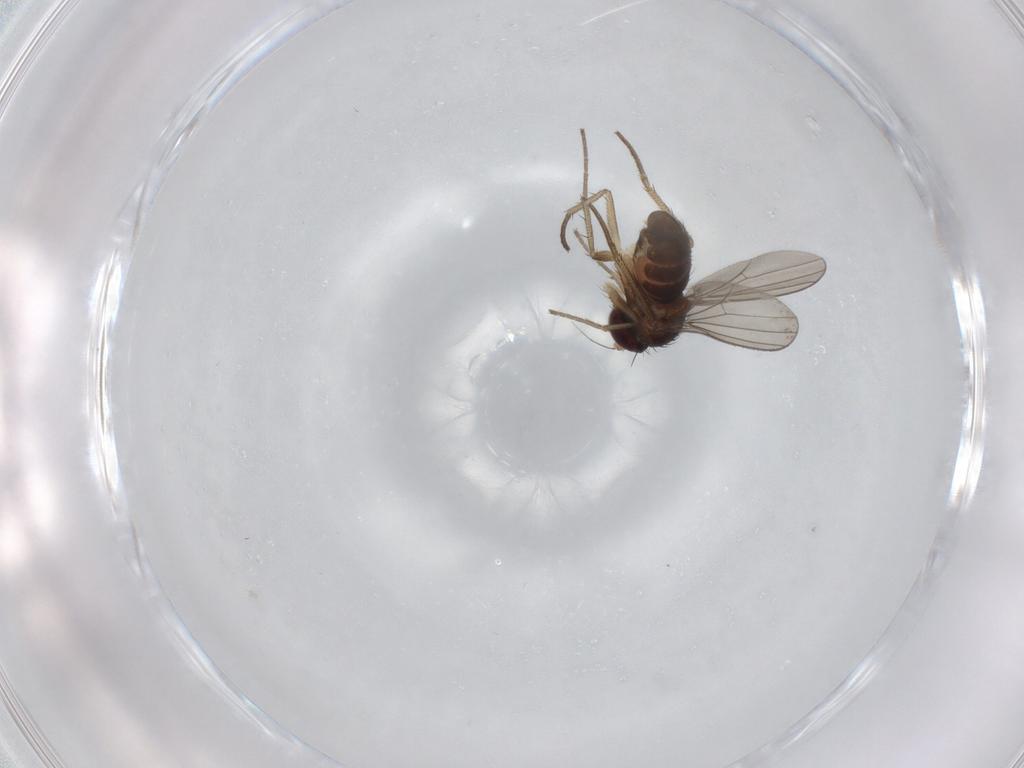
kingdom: Animalia
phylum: Arthropoda
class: Insecta
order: Diptera
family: Dolichopodidae
